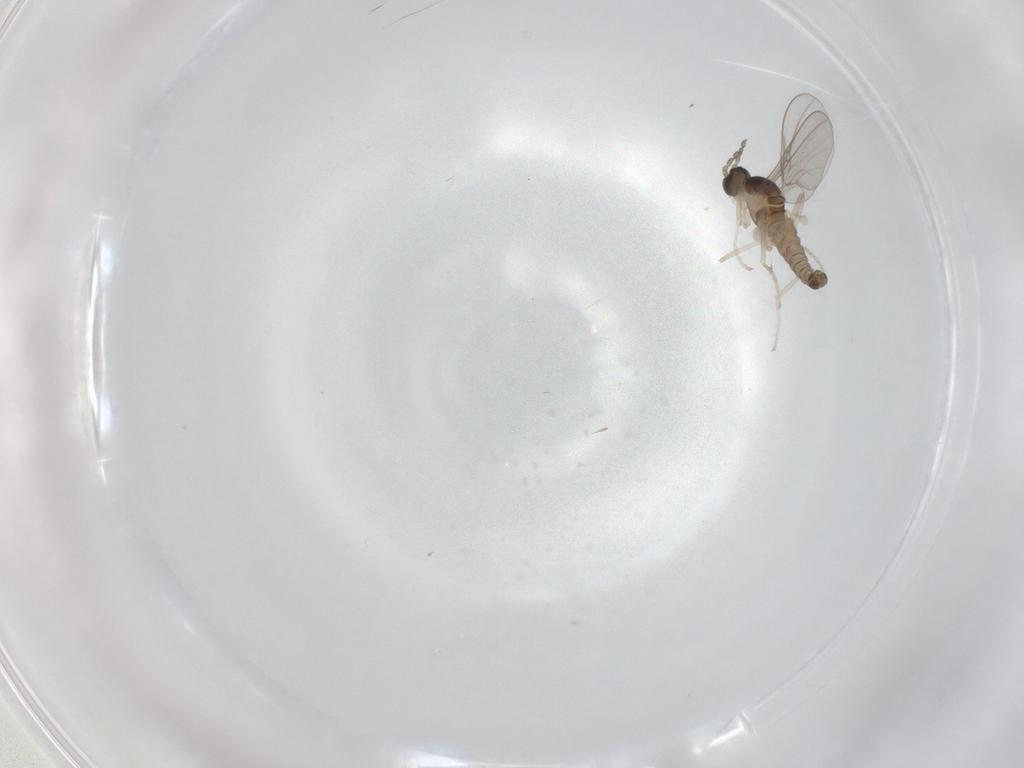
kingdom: Animalia
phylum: Arthropoda
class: Insecta
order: Diptera
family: Cecidomyiidae
